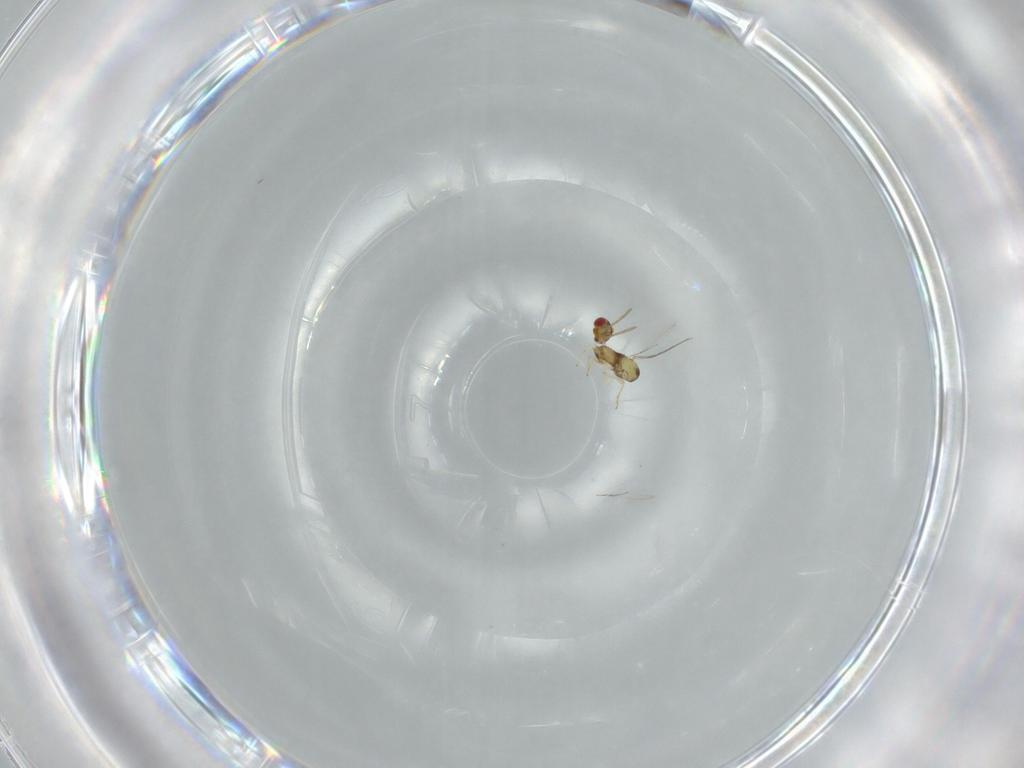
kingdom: Animalia
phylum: Arthropoda
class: Insecta
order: Hymenoptera
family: Aphelinidae
